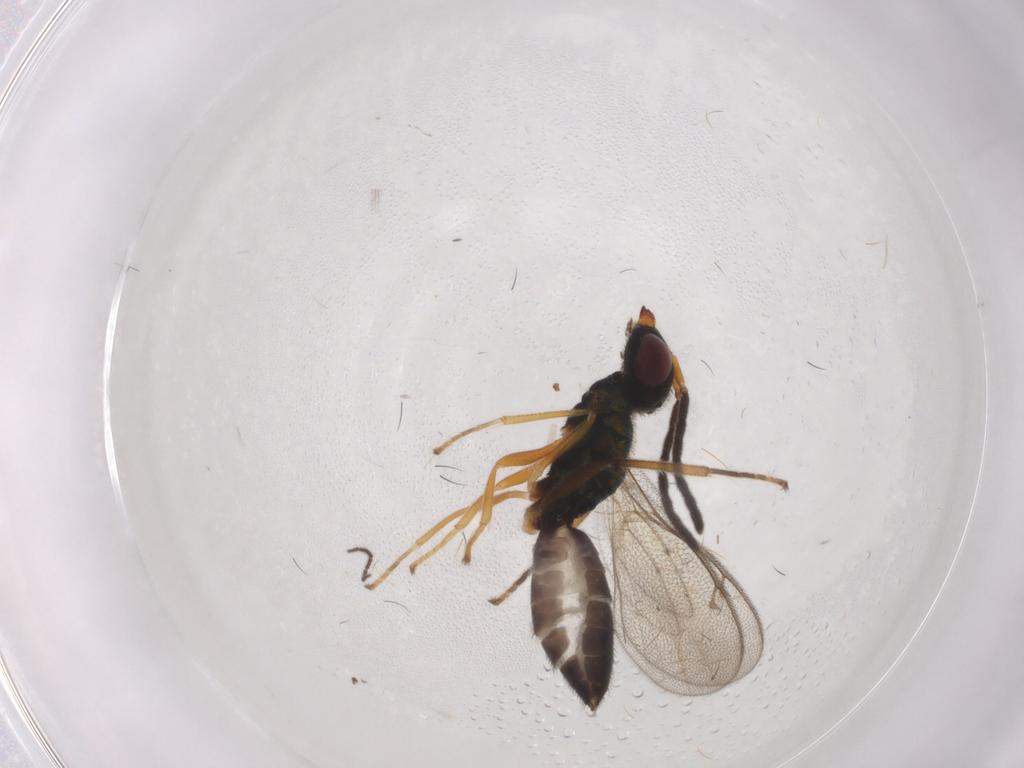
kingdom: Animalia
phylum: Arthropoda
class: Insecta
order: Hymenoptera
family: Pteromalidae
